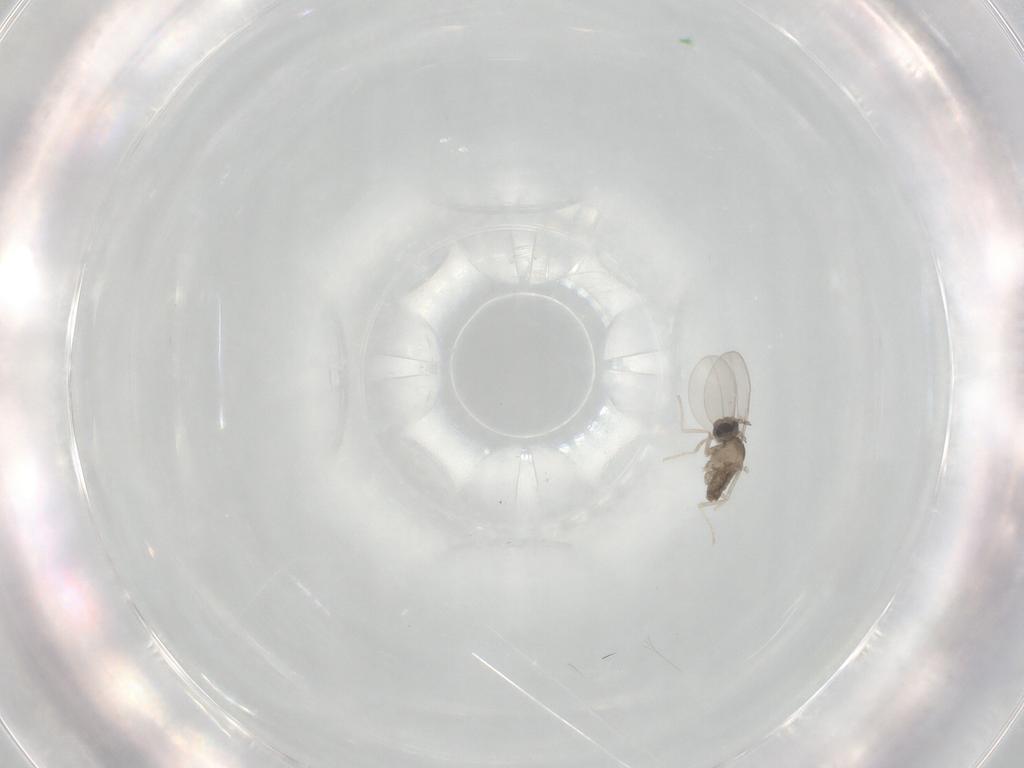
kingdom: Animalia
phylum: Arthropoda
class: Insecta
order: Diptera
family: Cecidomyiidae
